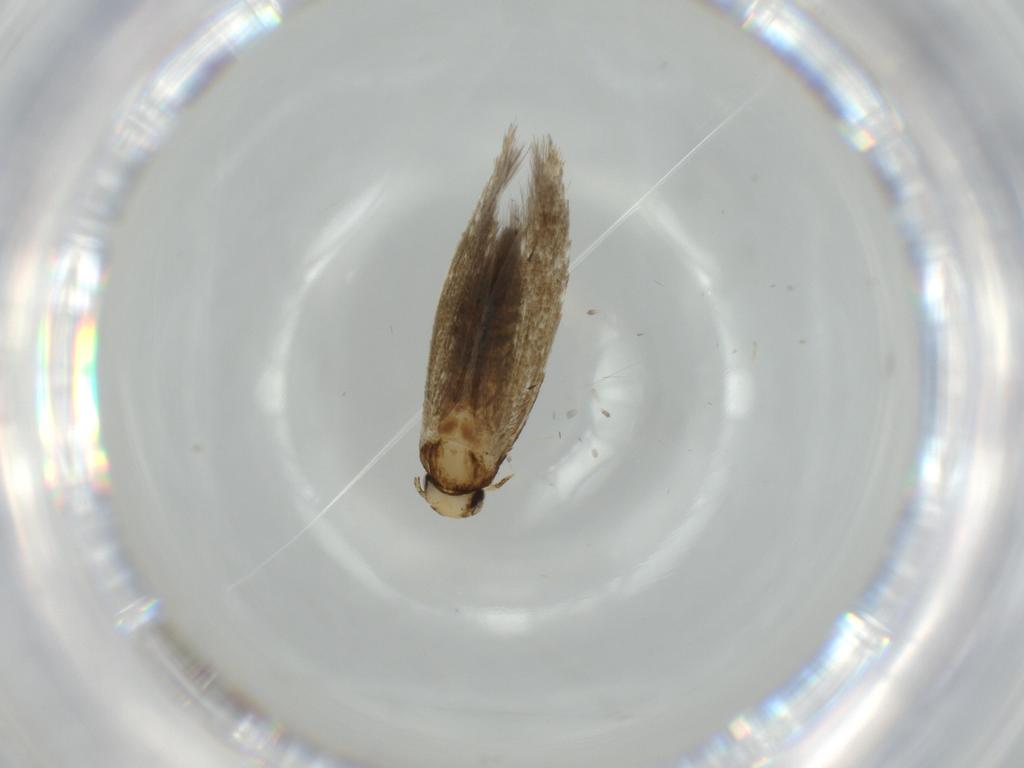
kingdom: Animalia
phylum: Arthropoda
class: Insecta
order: Lepidoptera
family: Tineidae
